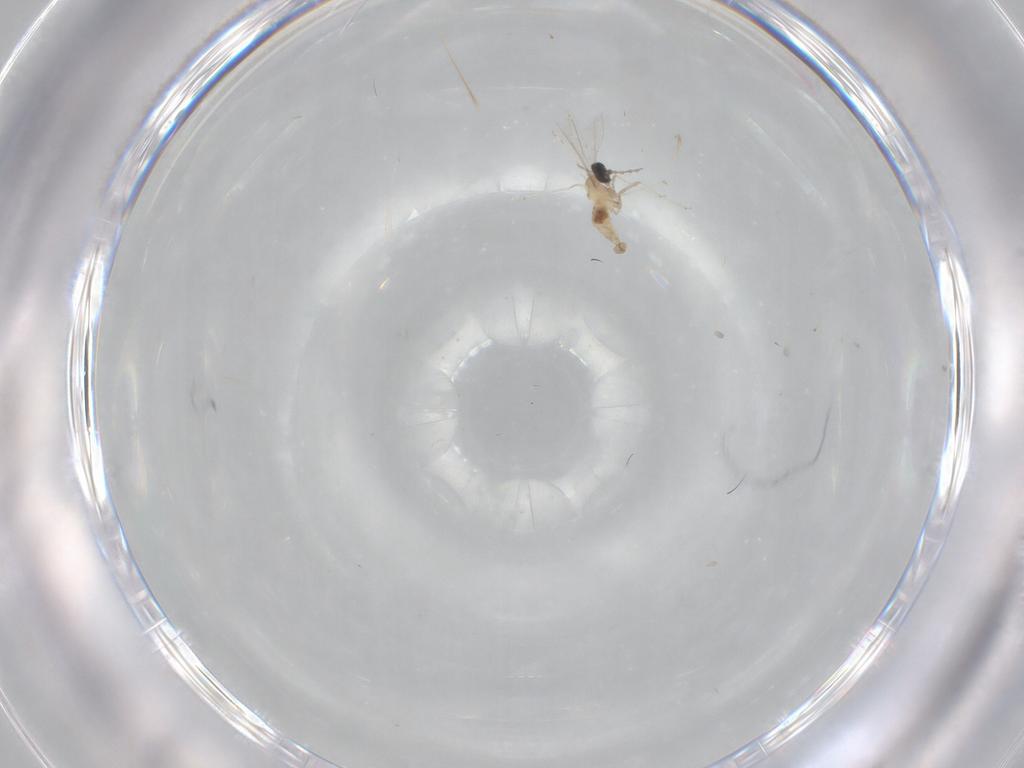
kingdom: Animalia
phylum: Arthropoda
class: Insecta
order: Diptera
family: Cecidomyiidae
